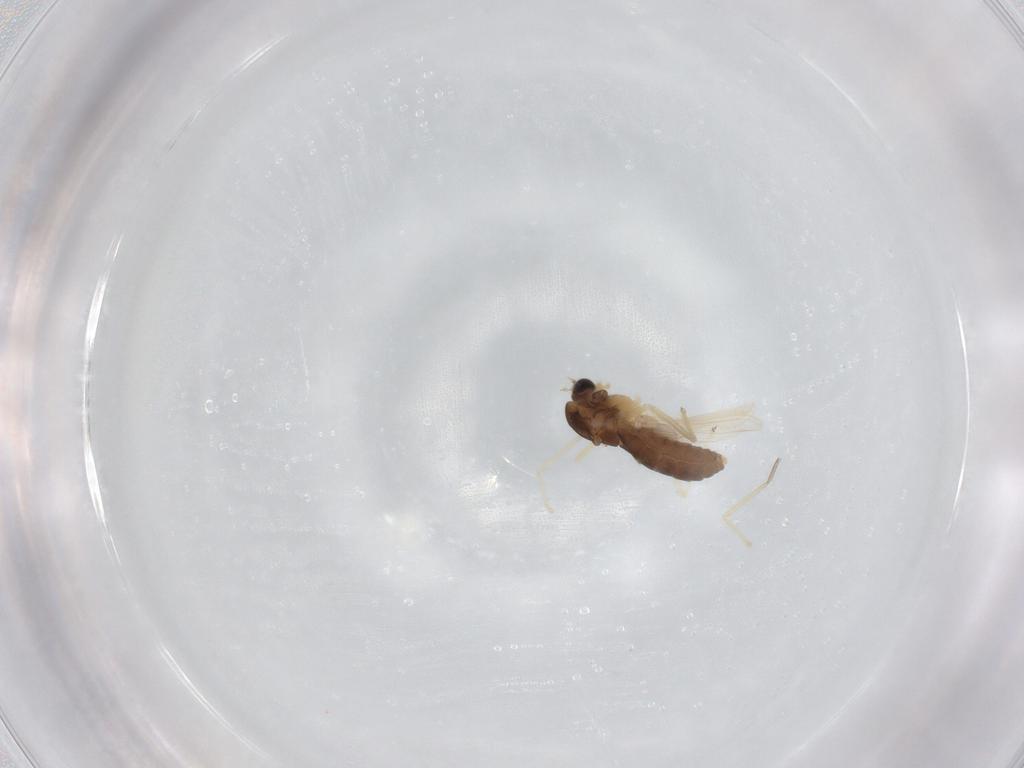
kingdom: Animalia
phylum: Arthropoda
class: Insecta
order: Diptera
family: Chironomidae
